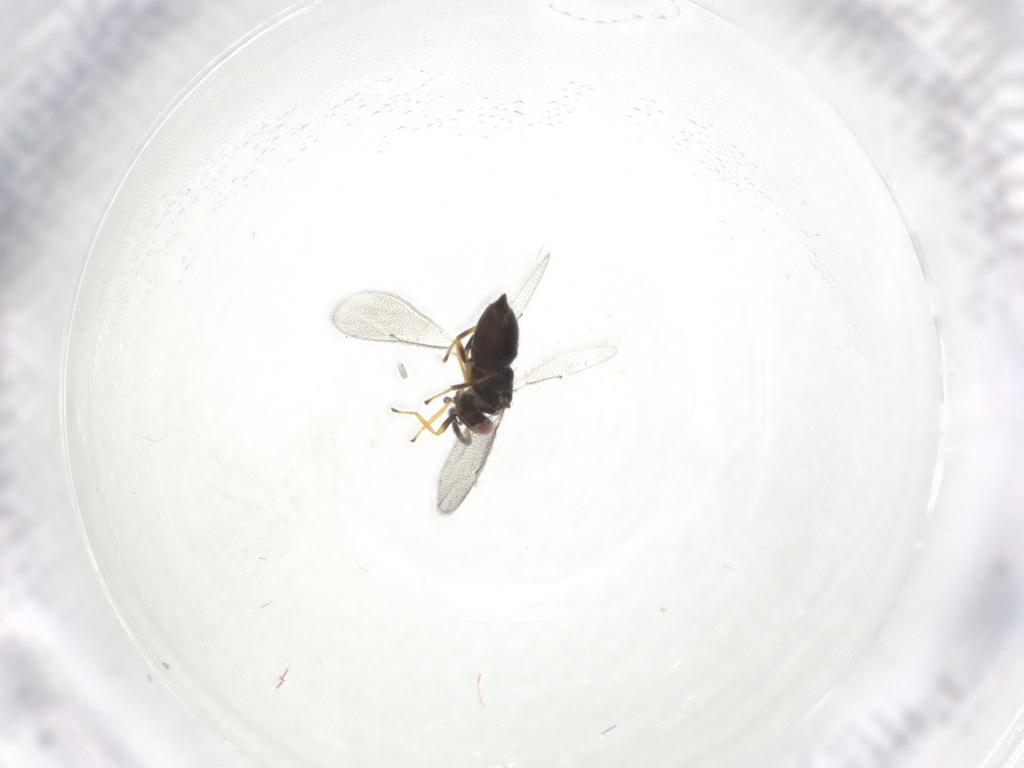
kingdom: Animalia
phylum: Arthropoda
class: Insecta
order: Hymenoptera
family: Eulophidae
